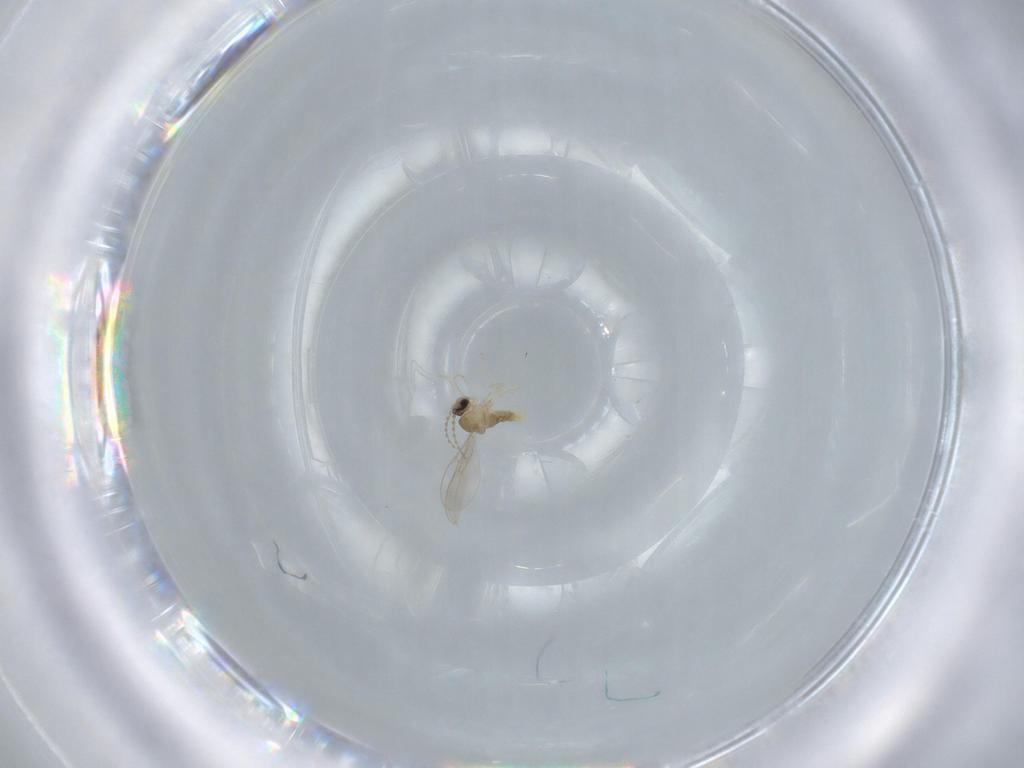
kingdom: Animalia
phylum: Arthropoda
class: Insecta
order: Diptera
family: Cecidomyiidae
